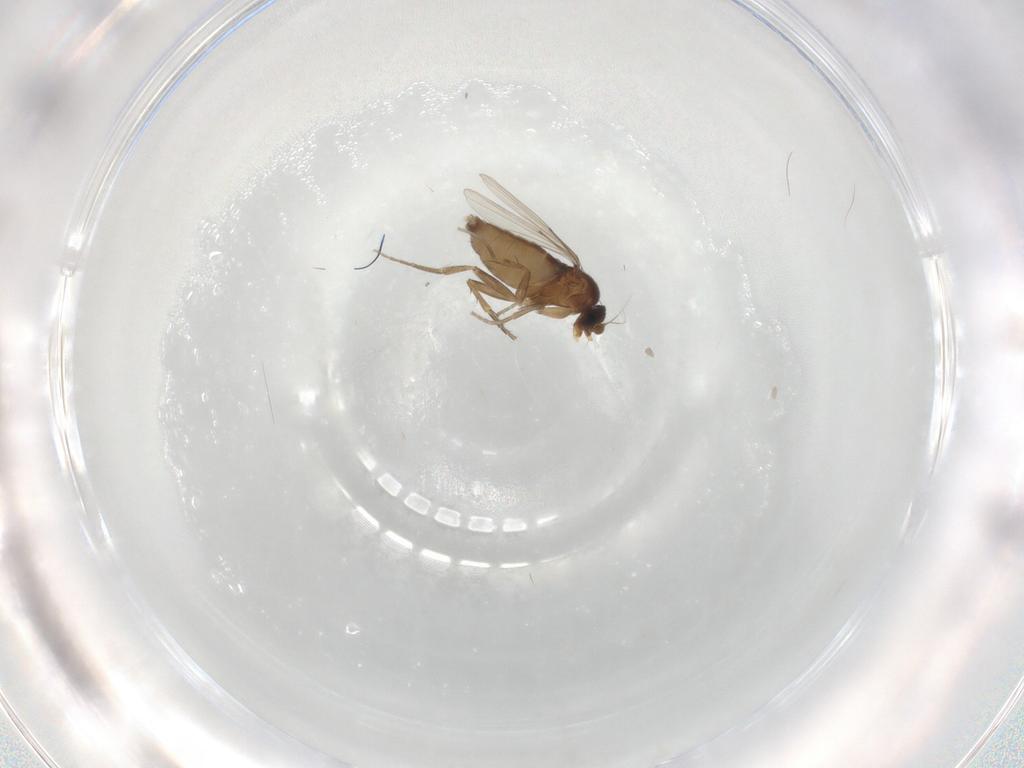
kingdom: Animalia
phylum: Arthropoda
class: Insecta
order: Diptera
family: Phoridae
